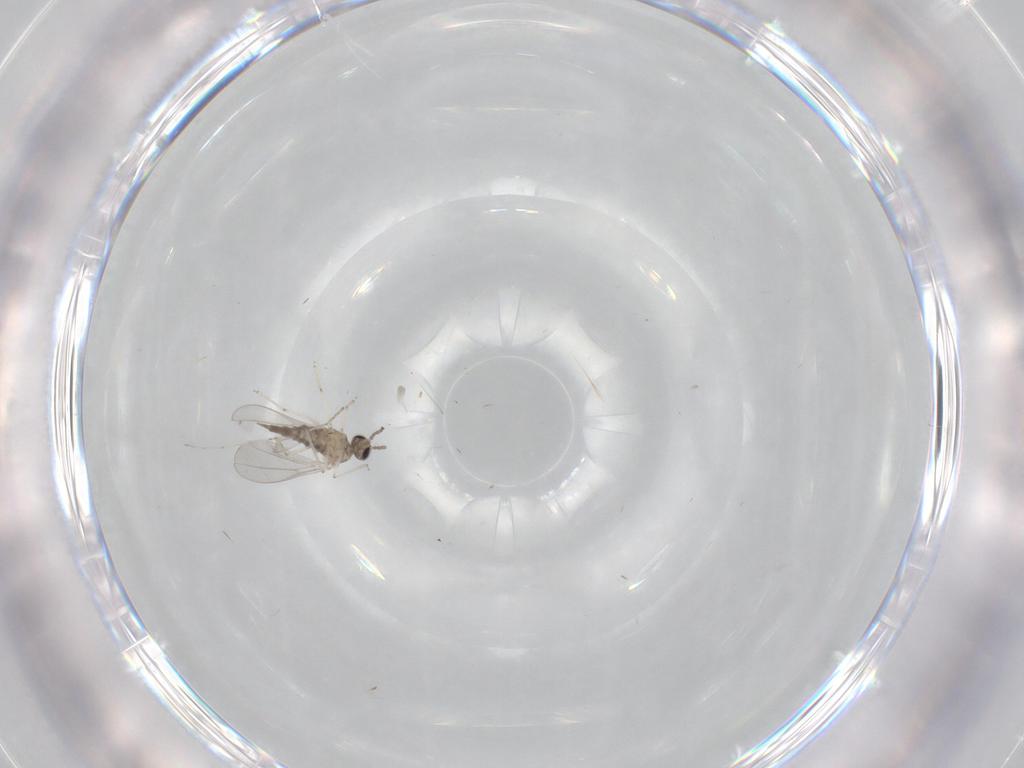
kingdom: Animalia
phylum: Arthropoda
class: Insecta
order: Diptera
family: Cecidomyiidae
